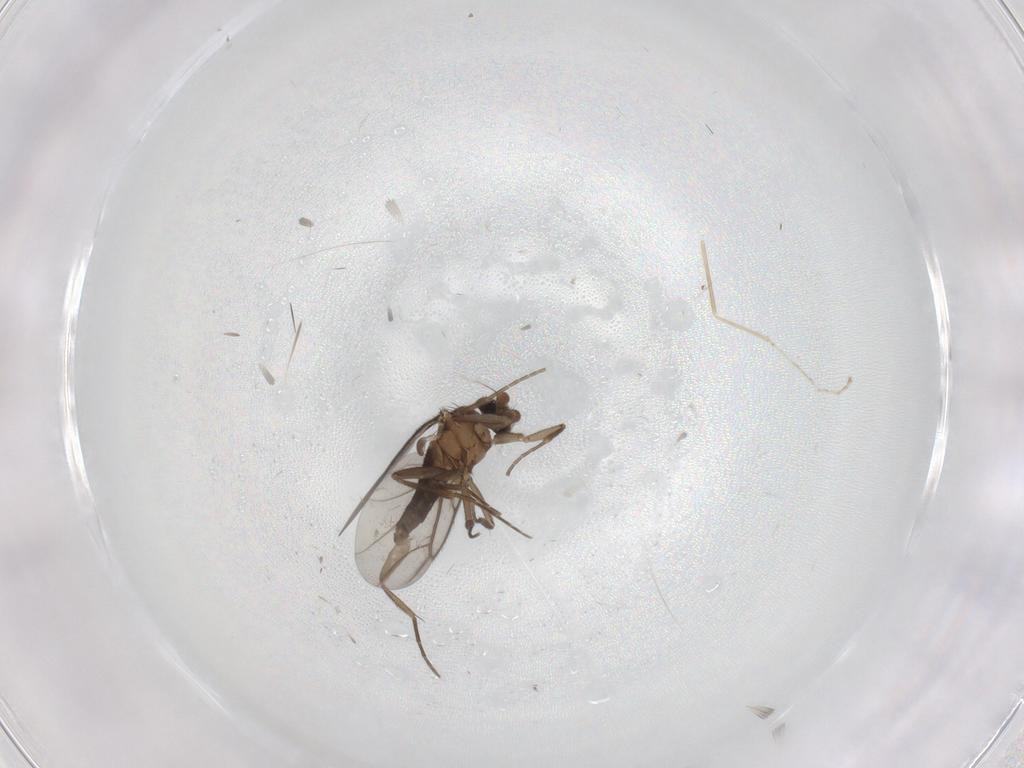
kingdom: Animalia
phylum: Arthropoda
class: Insecta
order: Diptera
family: Phoridae
